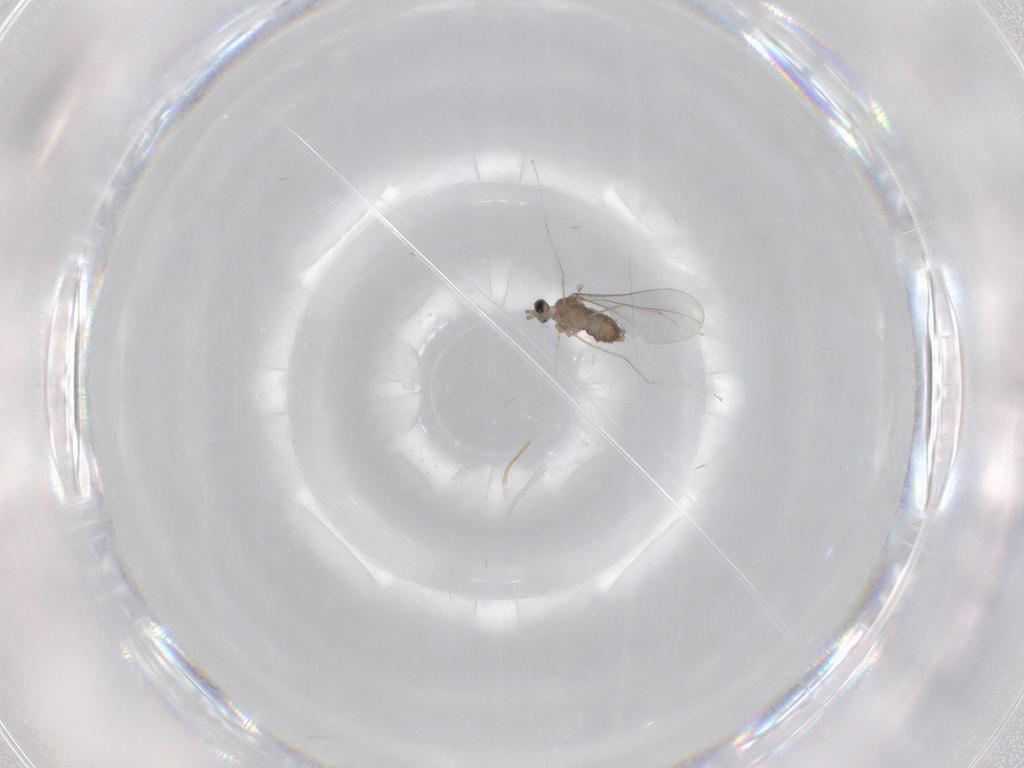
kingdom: Animalia
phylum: Arthropoda
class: Insecta
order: Diptera
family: Cecidomyiidae
